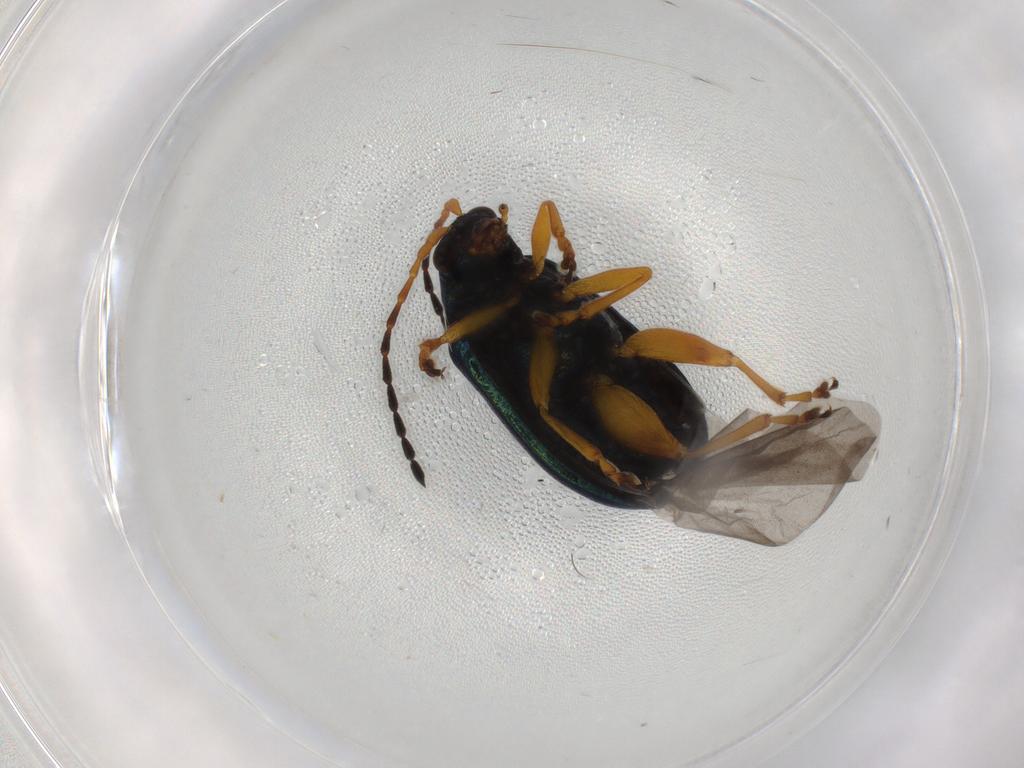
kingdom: Animalia
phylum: Arthropoda
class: Insecta
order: Coleoptera
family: Chrysomelidae
